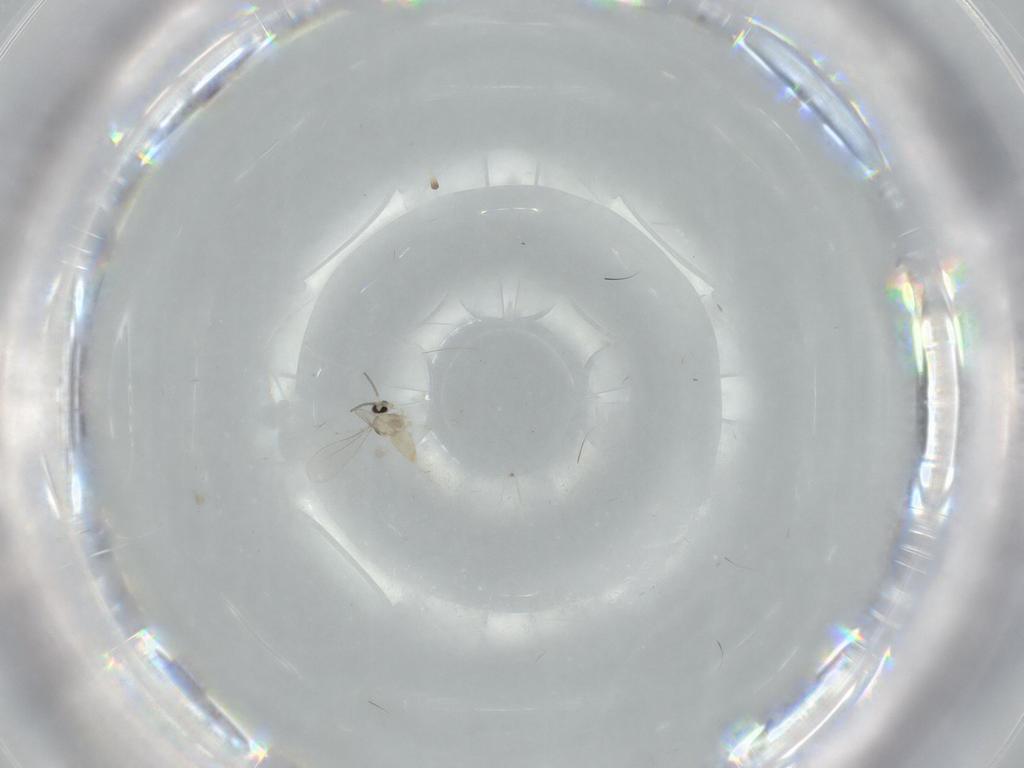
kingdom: Animalia
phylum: Arthropoda
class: Insecta
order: Diptera
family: Cecidomyiidae
